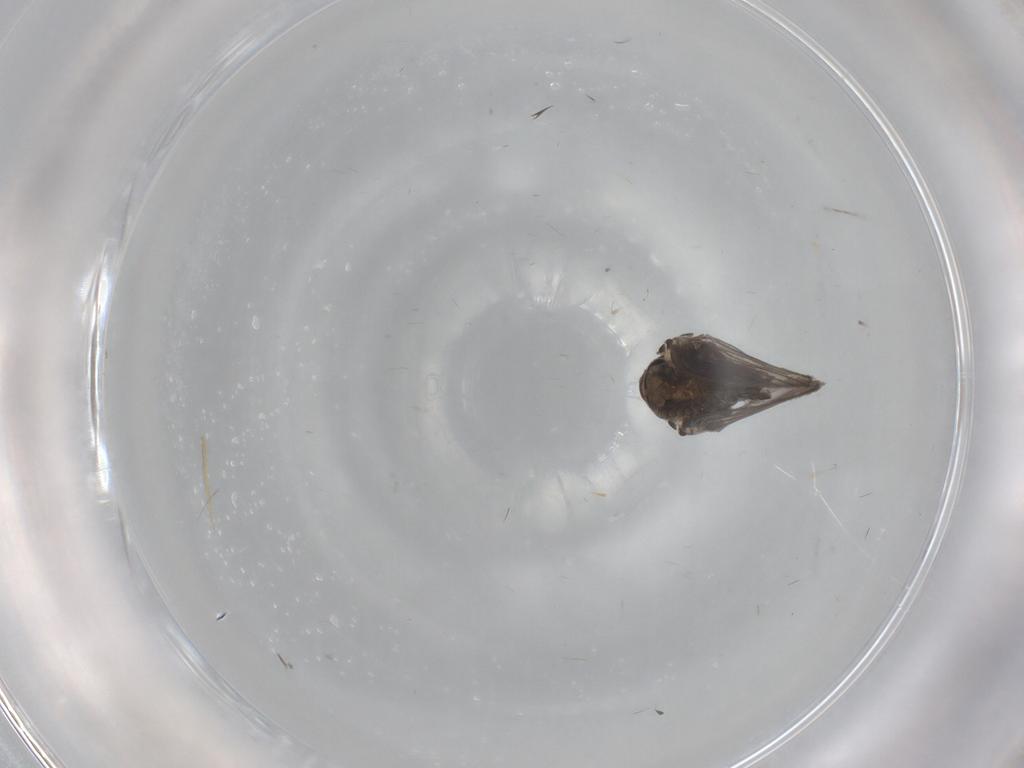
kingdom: Animalia
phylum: Arthropoda
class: Insecta
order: Diptera
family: Psychodidae
